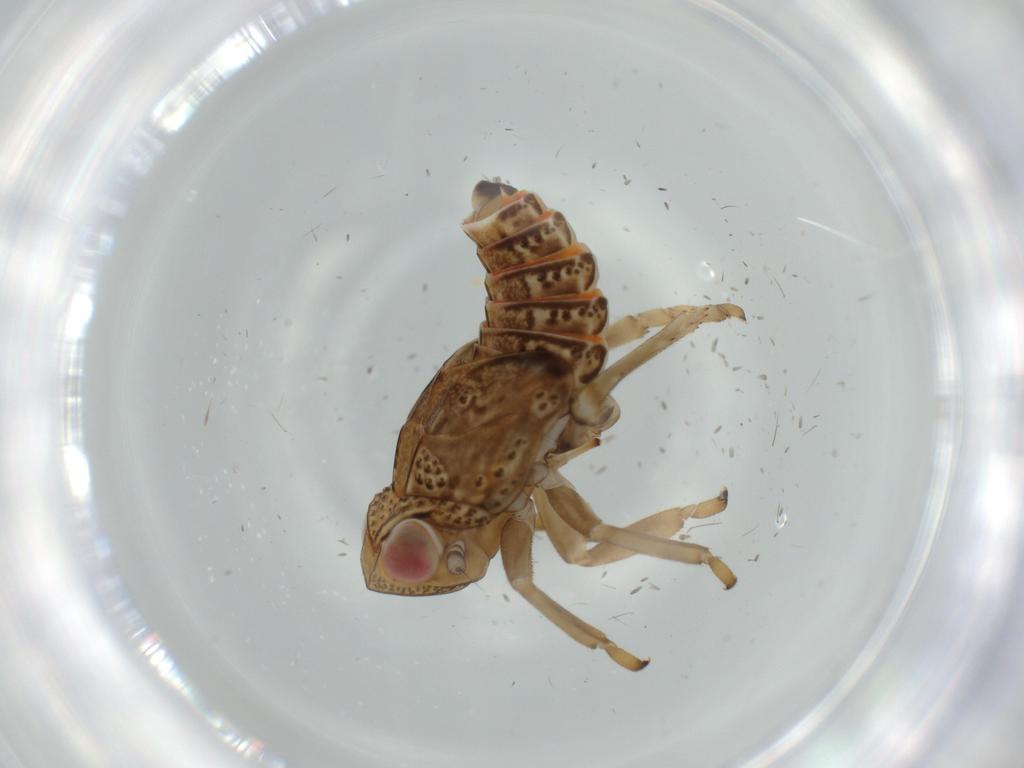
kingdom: Animalia
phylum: Arthropoda
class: Insecta
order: Hemiptera
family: Issidae
